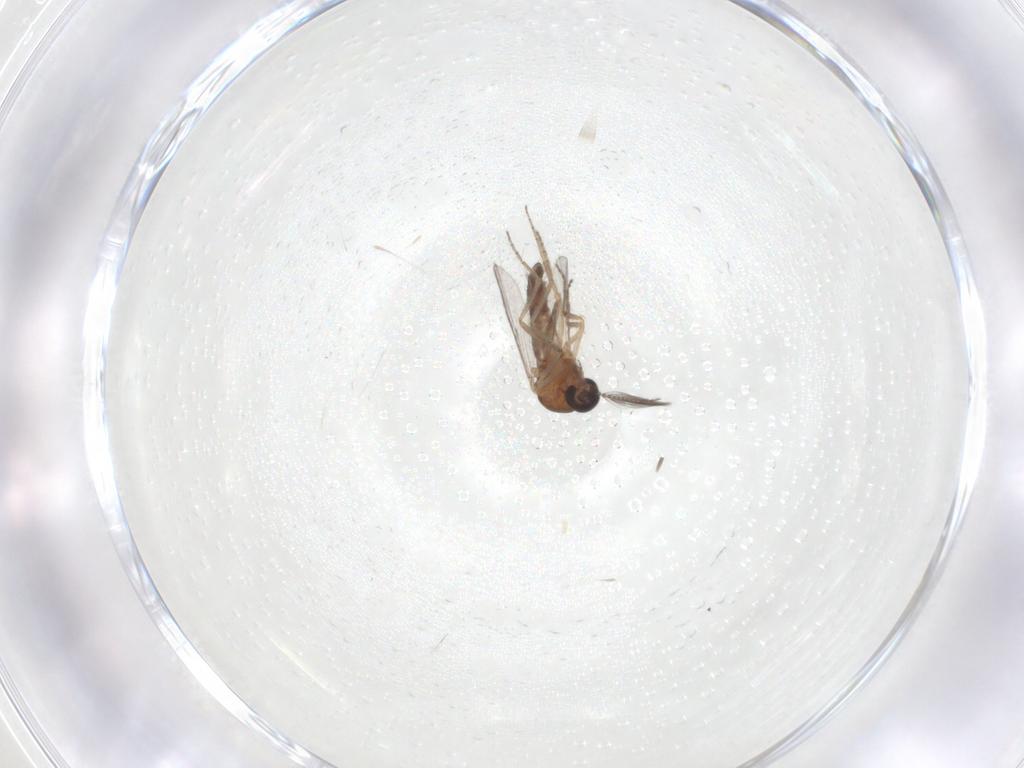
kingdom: Animalia
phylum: Arthropoda
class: Insecta
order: Diptera
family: Ceratopogonidae
